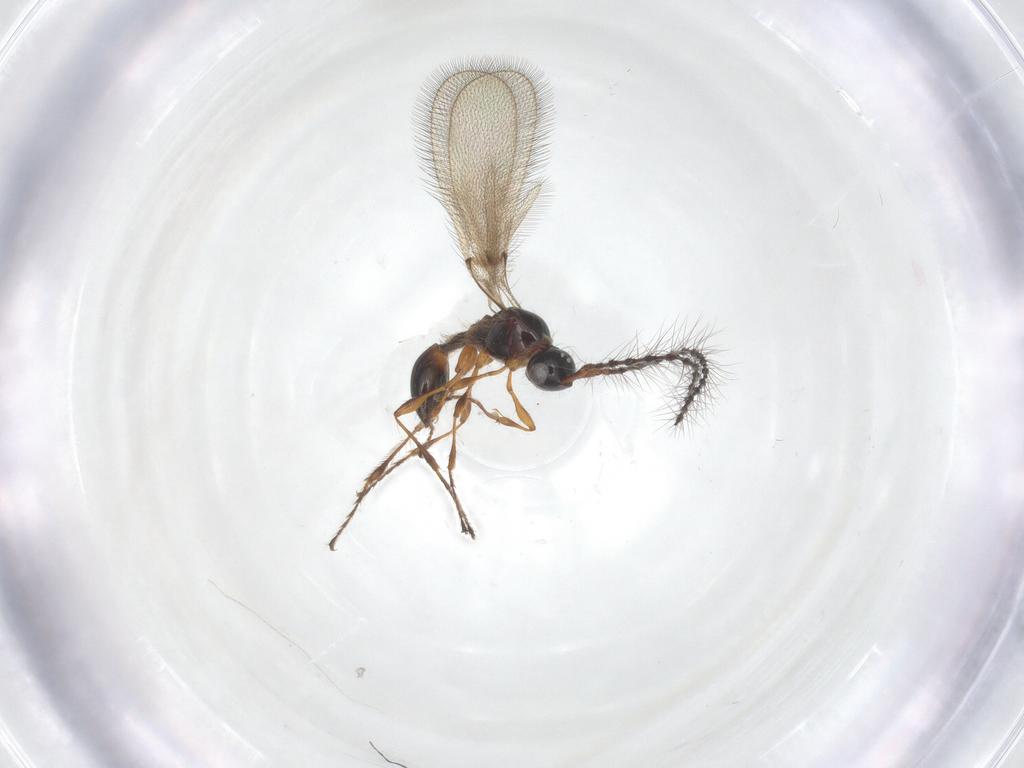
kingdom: Animalia
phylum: Arthropoda
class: Insecta
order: Hymenoptera
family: Diapriidae
